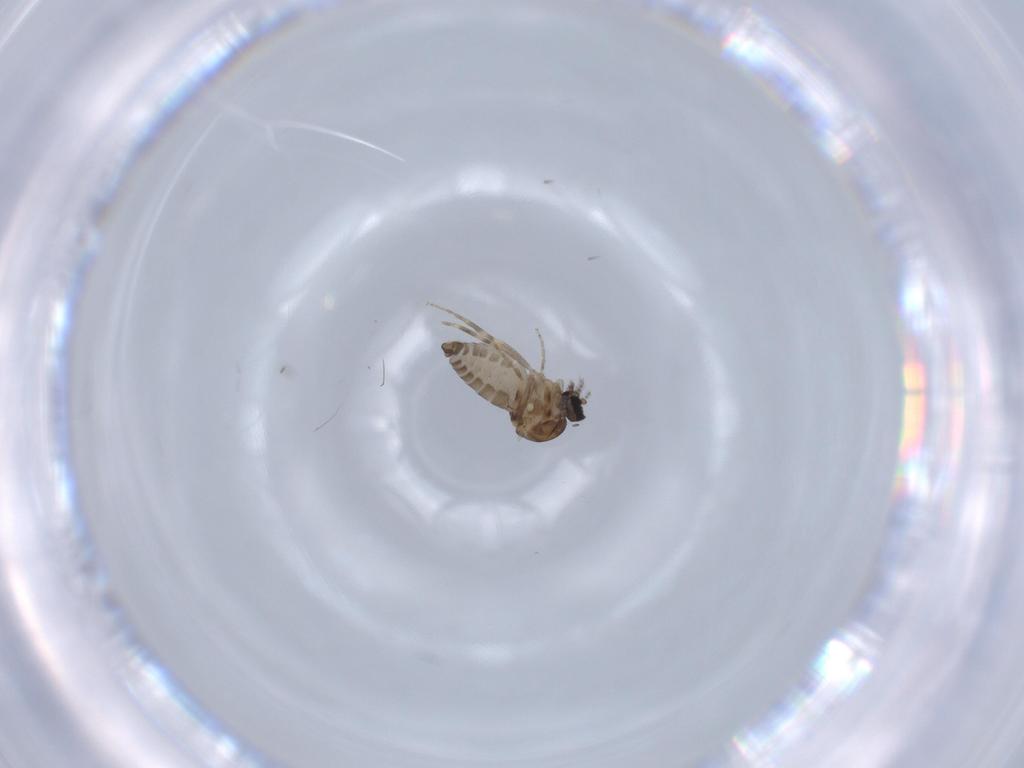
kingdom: Animalia
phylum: Arthropoda
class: Insecta
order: Diptera
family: Ceratopogonidae
